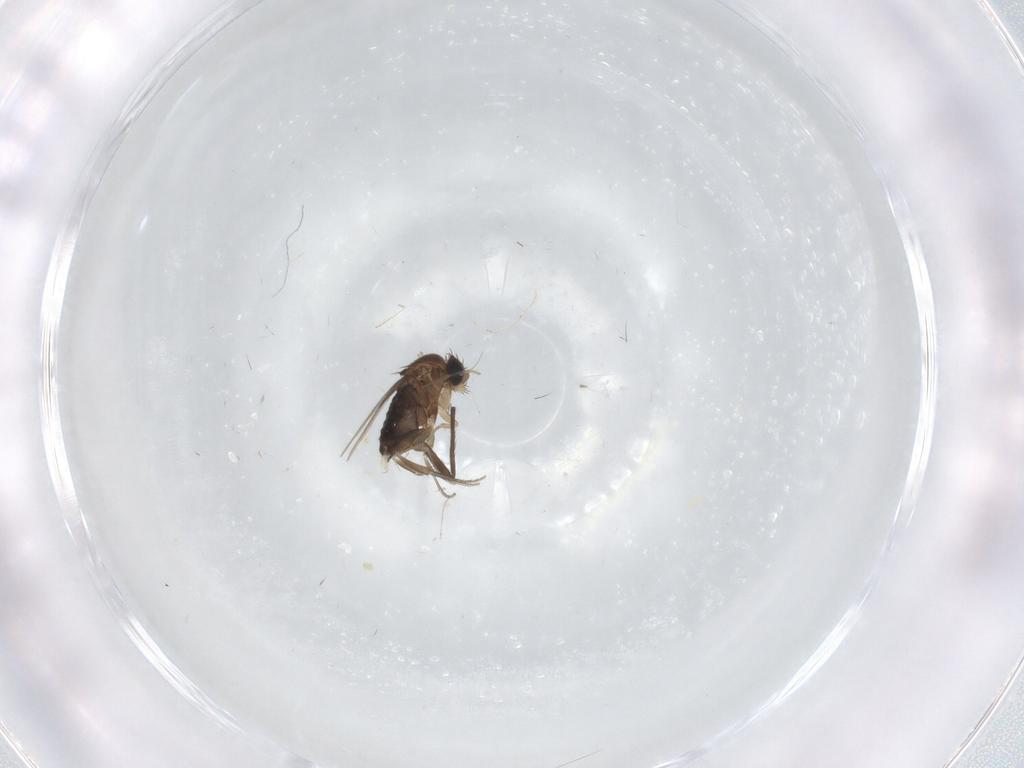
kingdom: Animalia
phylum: Arthropoda
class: Insecta
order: Diptera
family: Chironomidae
